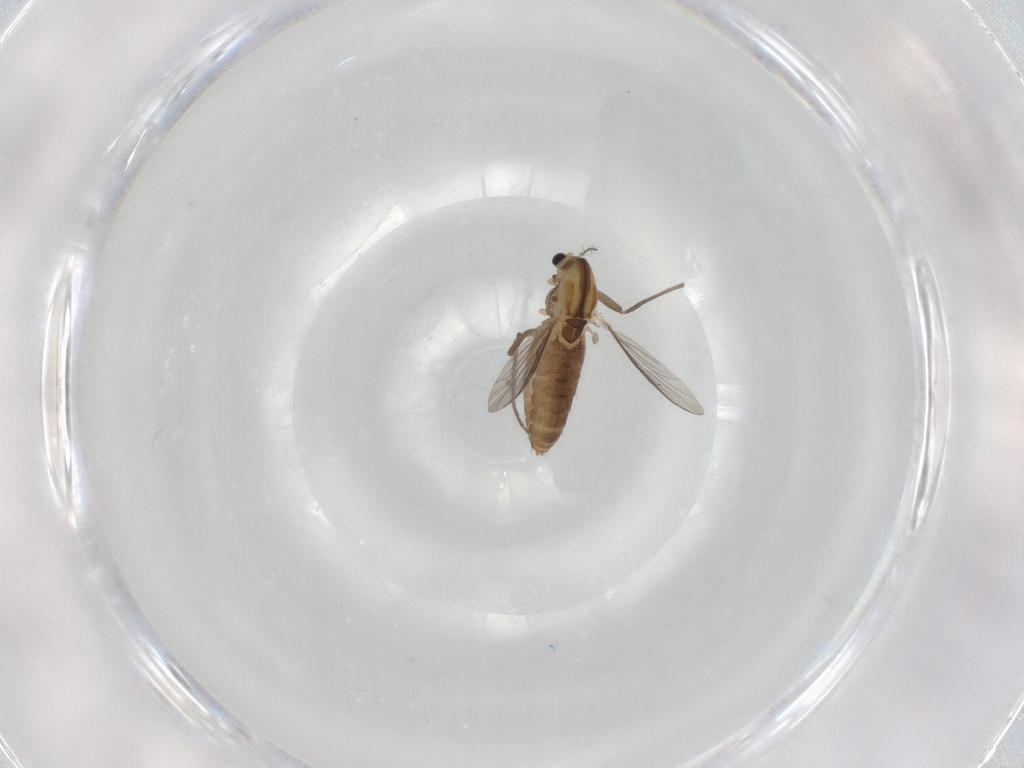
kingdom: Animalia
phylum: Arthropoda
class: Insecta
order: Diptera
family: Chironomidae
